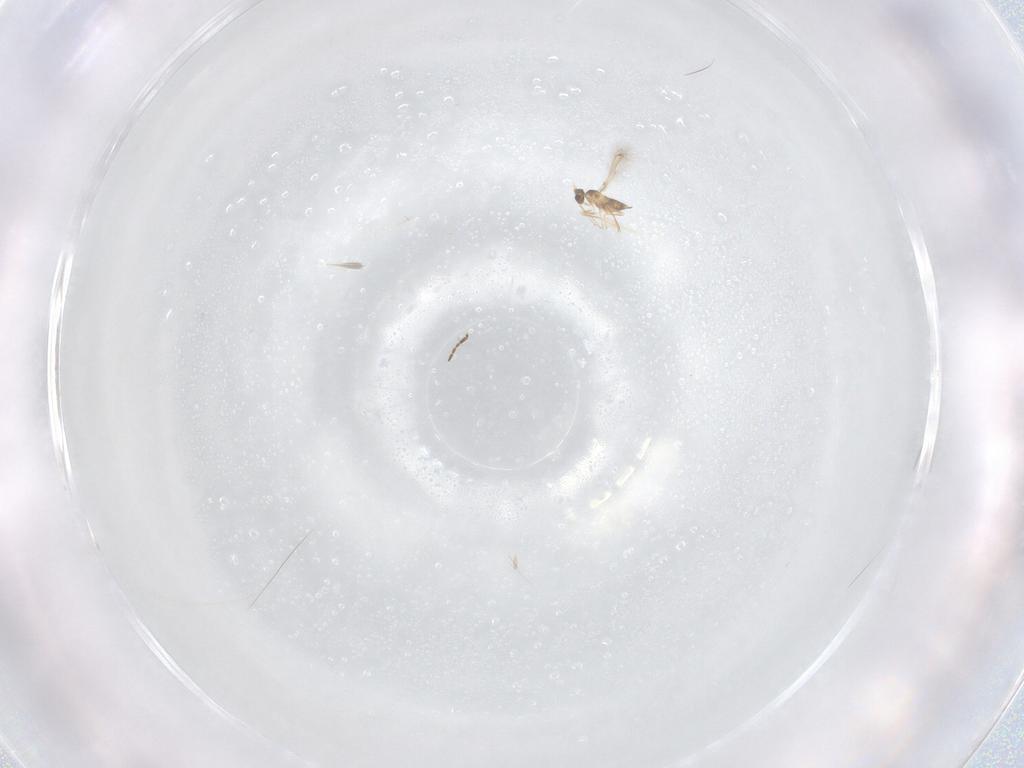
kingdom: Animalia
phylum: Arthropoda
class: Insecta
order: Hymenoptera
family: Mymaridae
